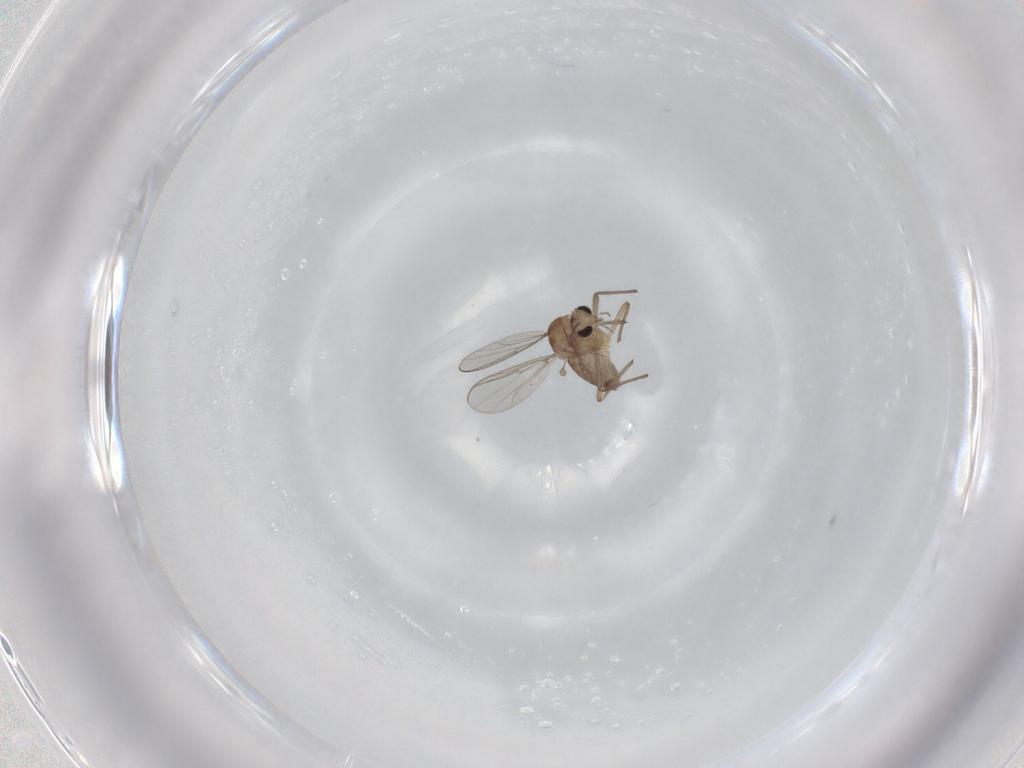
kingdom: Animalia
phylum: Arthropoda
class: Insecta
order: Diptera
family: Chironomidae
